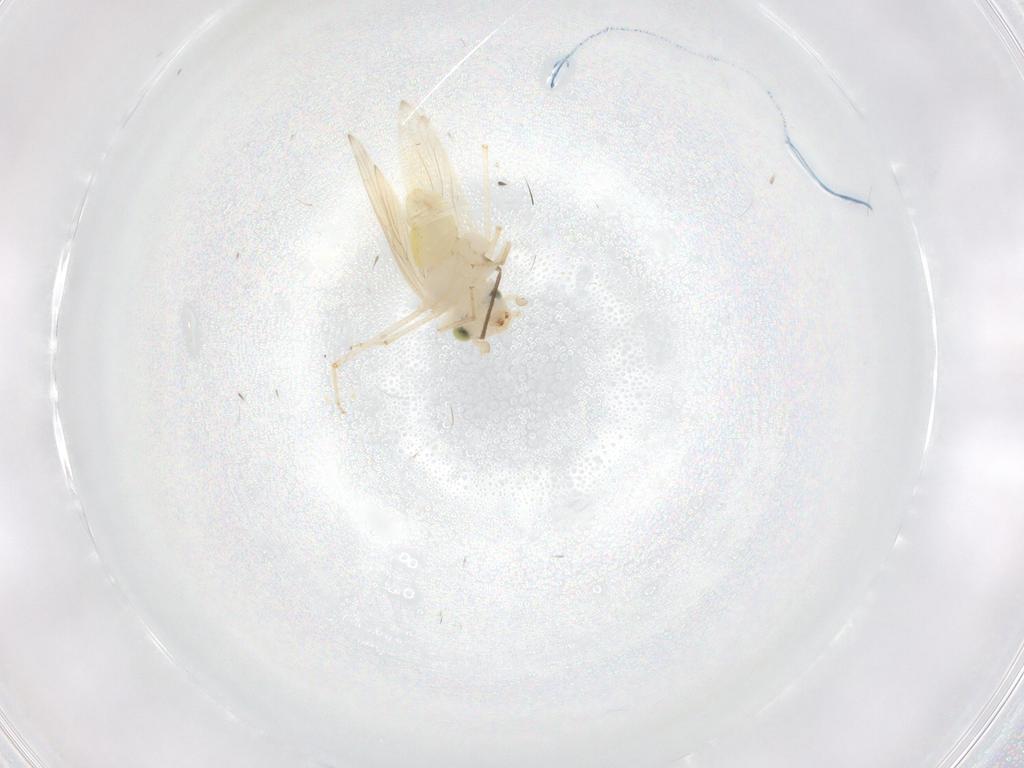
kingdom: Animalia
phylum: Arthropoda
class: Insecta
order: Psocodea
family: Lepidopsocidae
